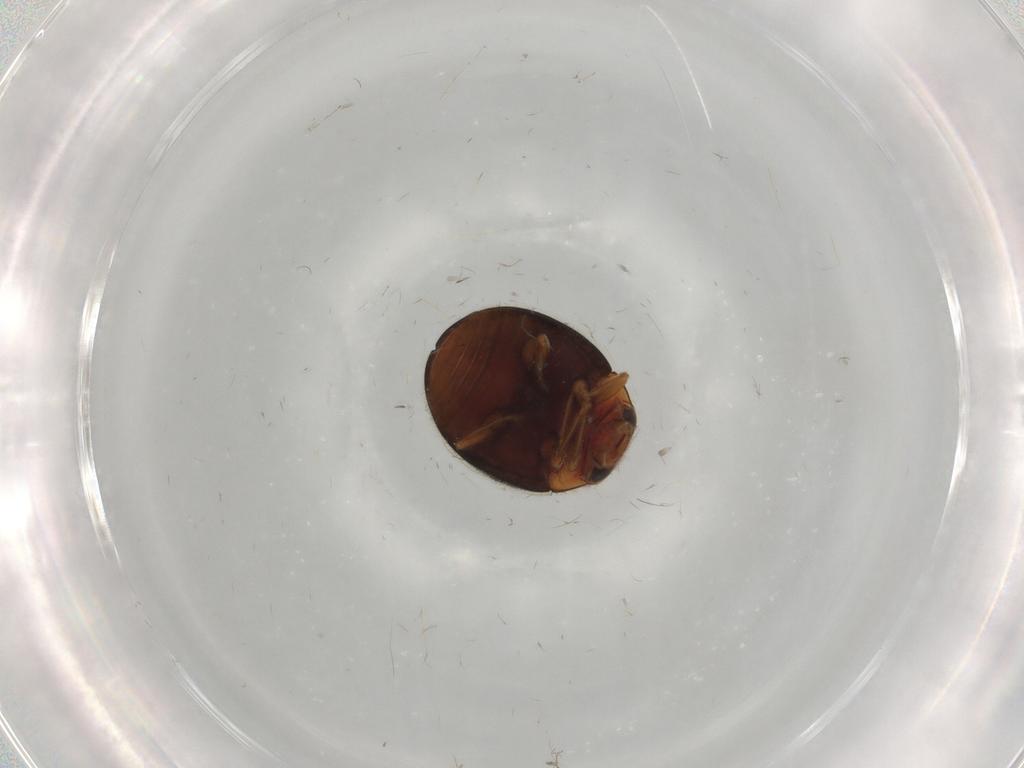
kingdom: Animalia
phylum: Arthropoda
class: Insecta
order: Coleoptera
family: Coccinellidae
